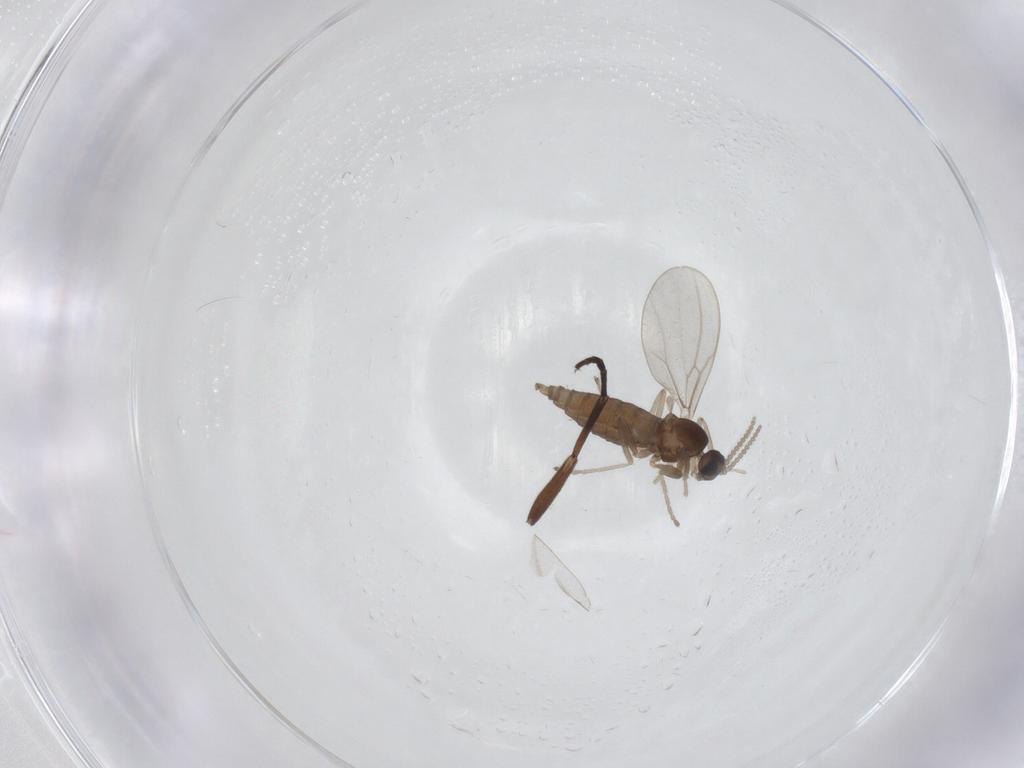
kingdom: Animalia
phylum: Arthropoda
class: Insecta
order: Diptera
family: Cecidomyiidae
